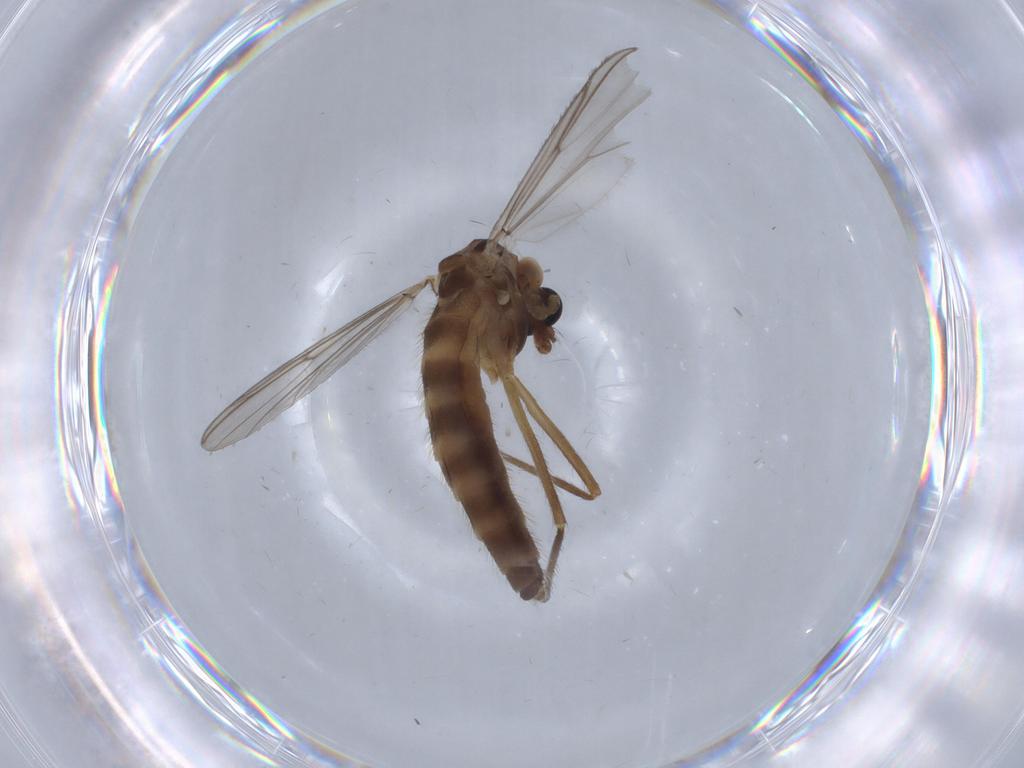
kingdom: Animalia
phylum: Arthropoda
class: Insecta
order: Diptera
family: Chironomidae
